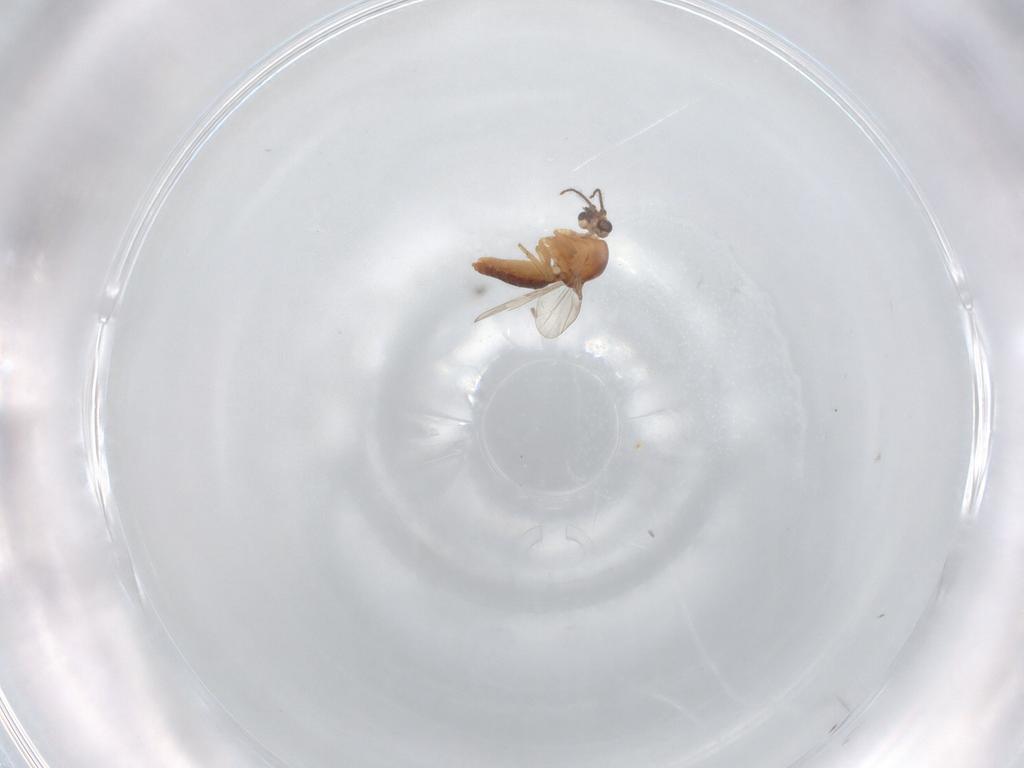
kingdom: Animalia
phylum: Arthropoda
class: Insecta
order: Diptera
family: Ceratopogonidae
